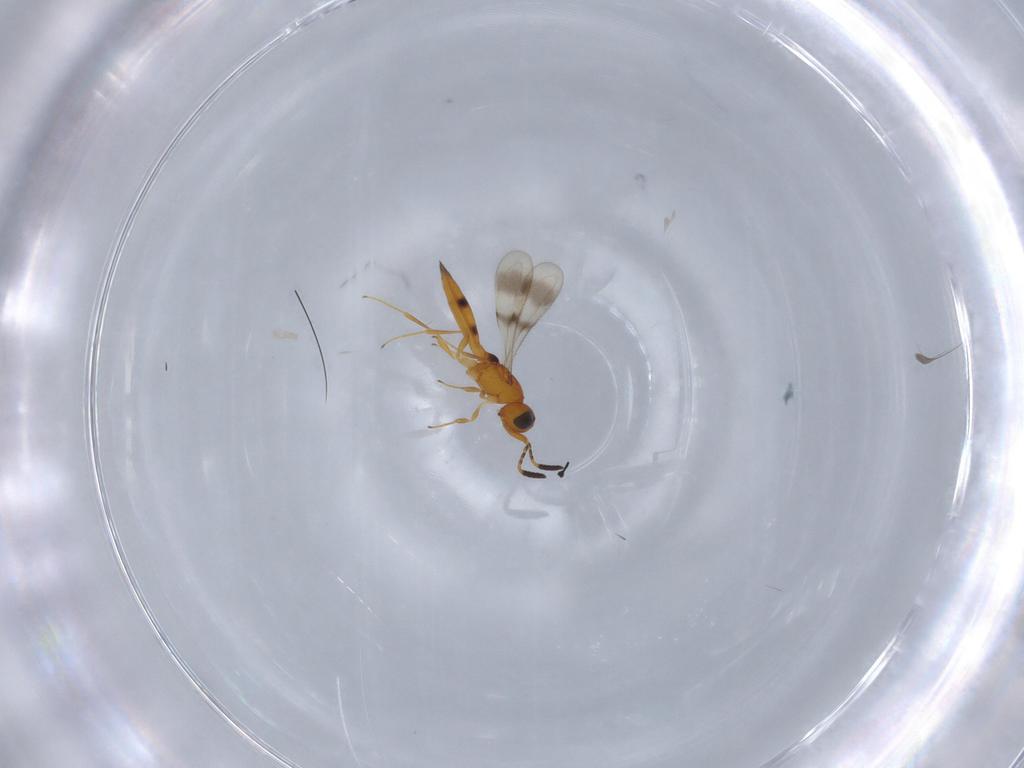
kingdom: Animalia
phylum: Arthropoda
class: Insecta
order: Hymenoptera
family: Scelionidae
